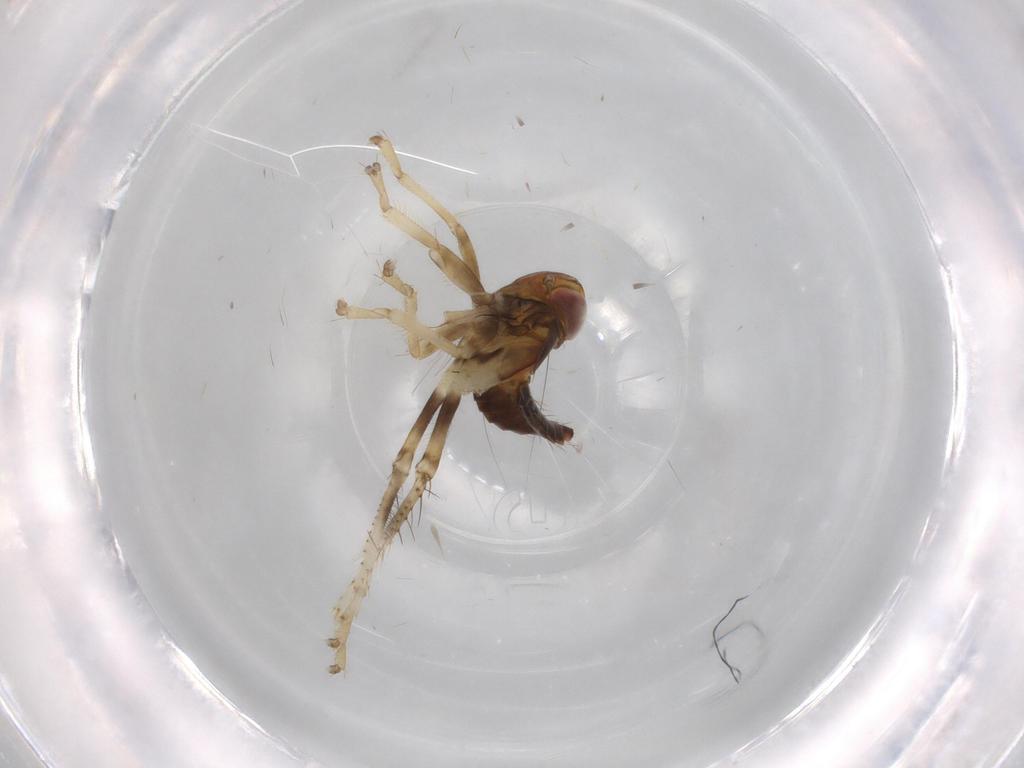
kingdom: Animalia
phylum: Arthropoda
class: Insecta
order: Hemiptera
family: Cicadellidae
